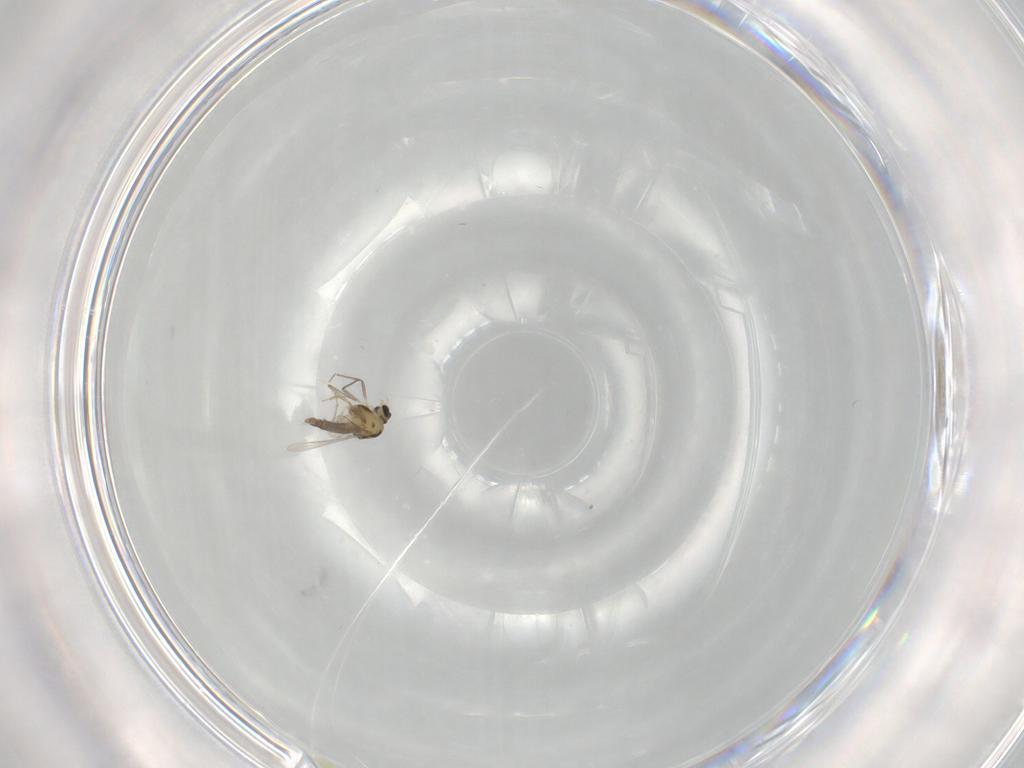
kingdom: Animalia
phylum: Arthropoda
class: Insecta
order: Diptera
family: Chironomidae
